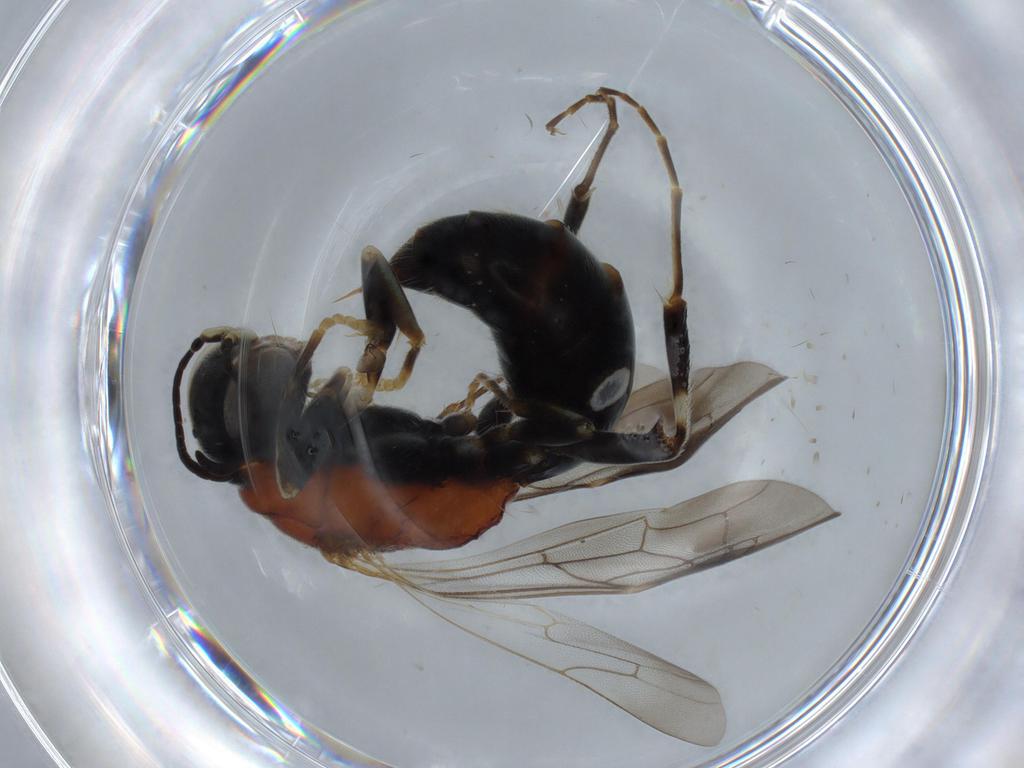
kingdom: Animalia
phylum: Arthropoda
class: Insecta
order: Hymenoptera
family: Bembicidae
